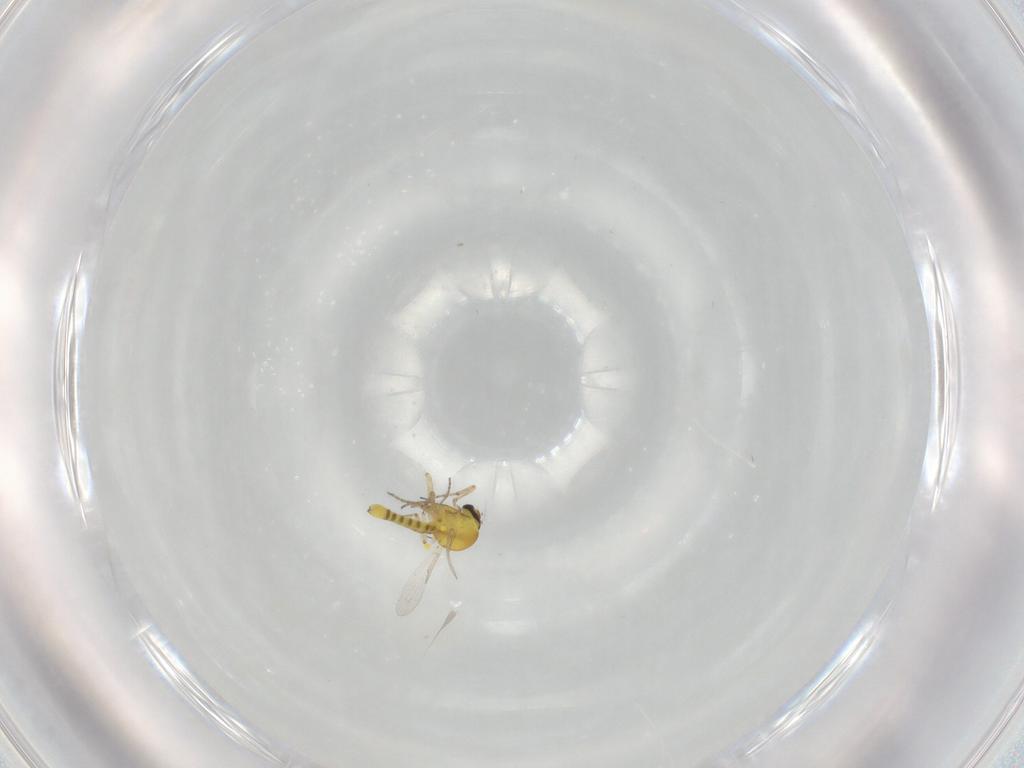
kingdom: Animalia
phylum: Arthropoda
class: Insecta
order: Diptera
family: Ceratopogonidae
